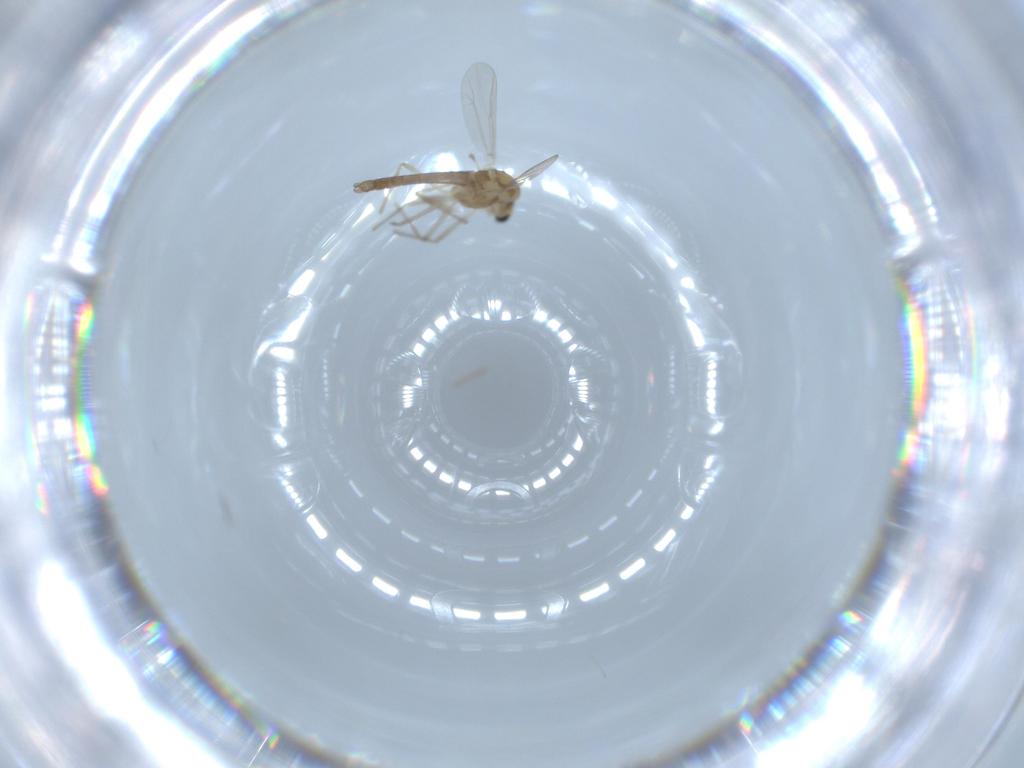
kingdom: Animalia
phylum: Arthropoda
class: Insecta
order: Diptera
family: Chironomidae
